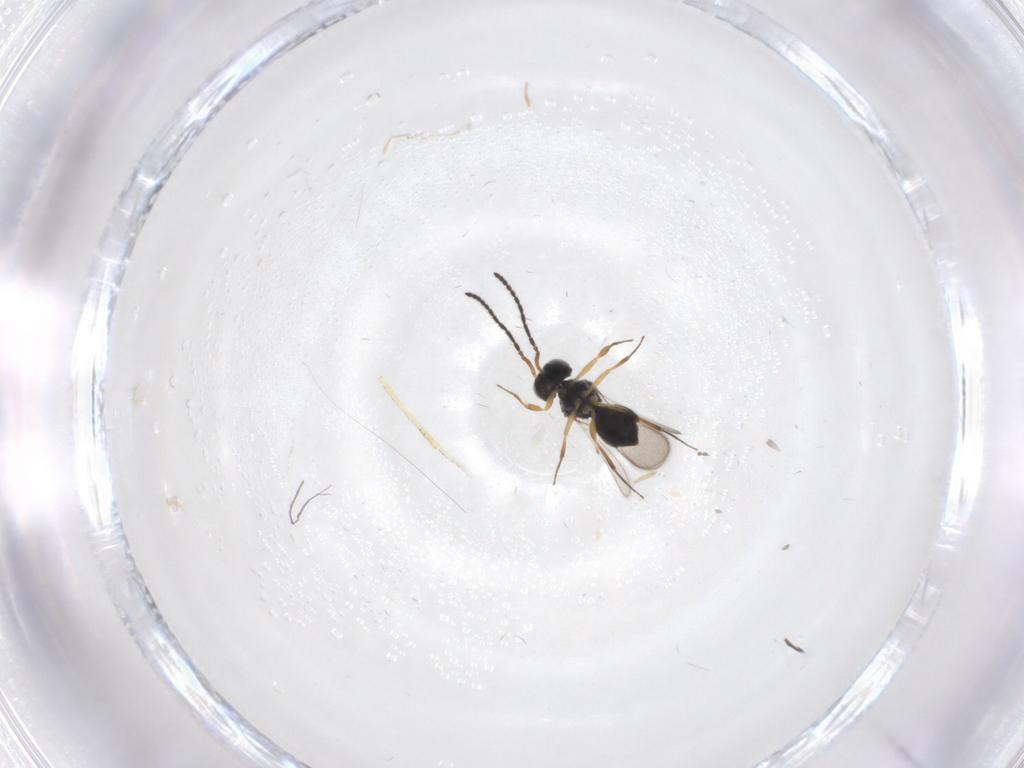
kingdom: Animalia
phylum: Arthropoda
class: Insecta
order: Hymenoptera
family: Scelionidae
